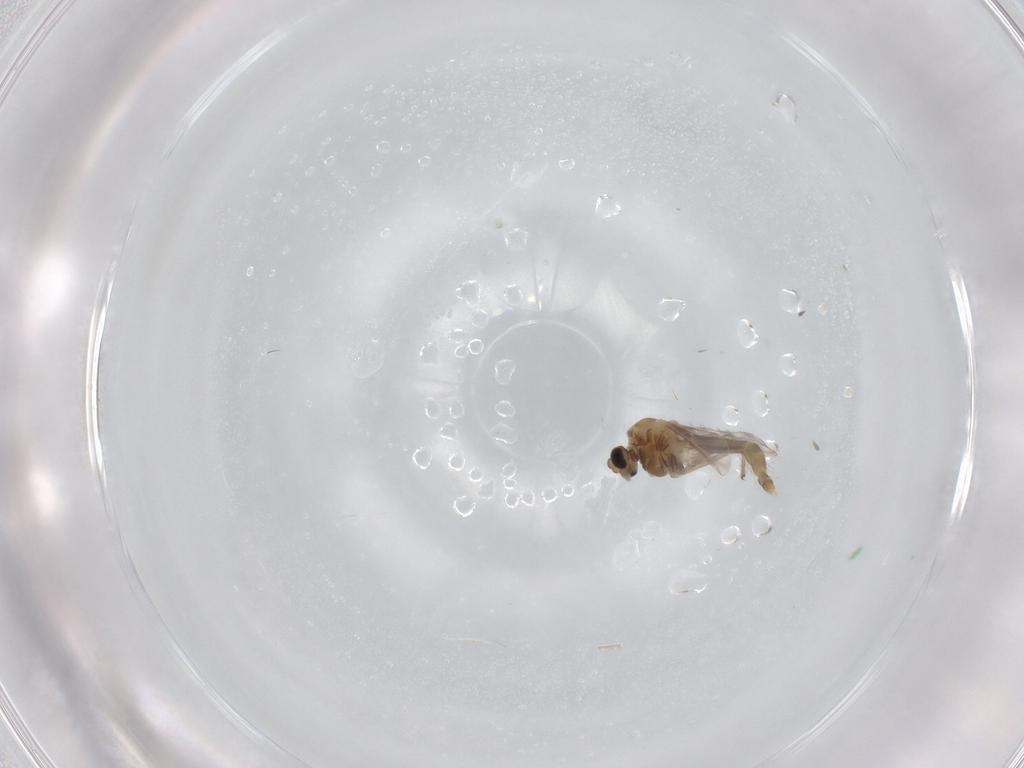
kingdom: Animalia
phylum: Arthropoda
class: Insecta
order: Diptera
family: Chironomidae
